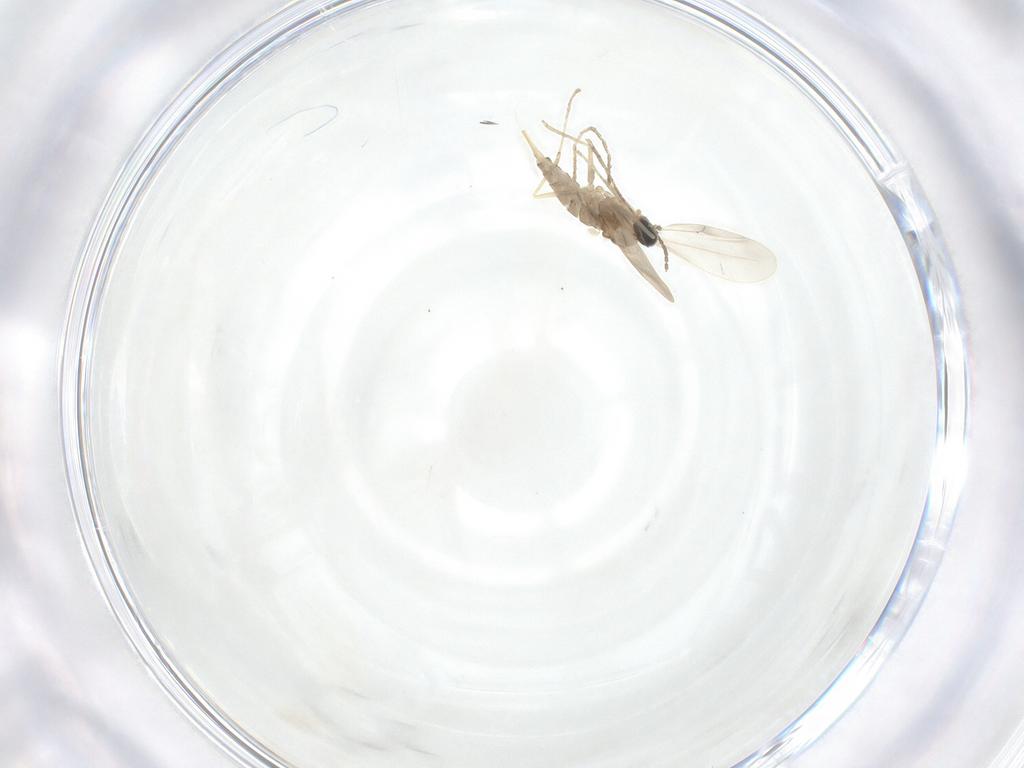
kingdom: Animalia
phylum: Arthropoda
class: Insecta
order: Diptera
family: Cecidomyiidae
